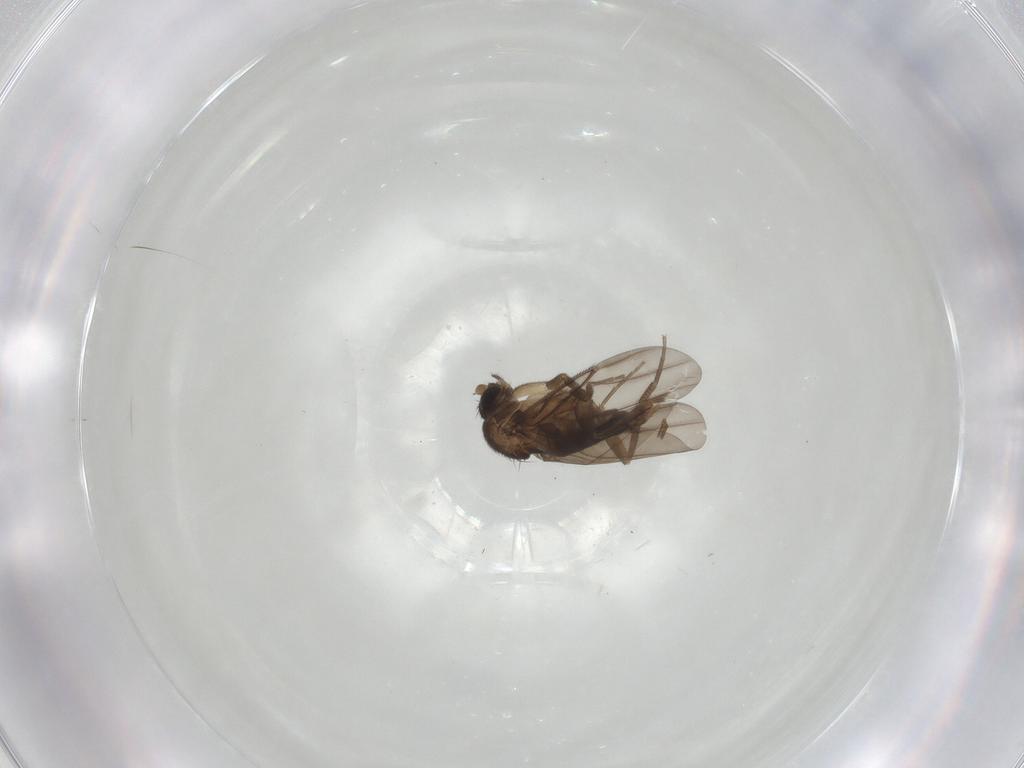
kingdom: Animalia
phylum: Arthropoda
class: Insecta
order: Diptera
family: Phoridae
